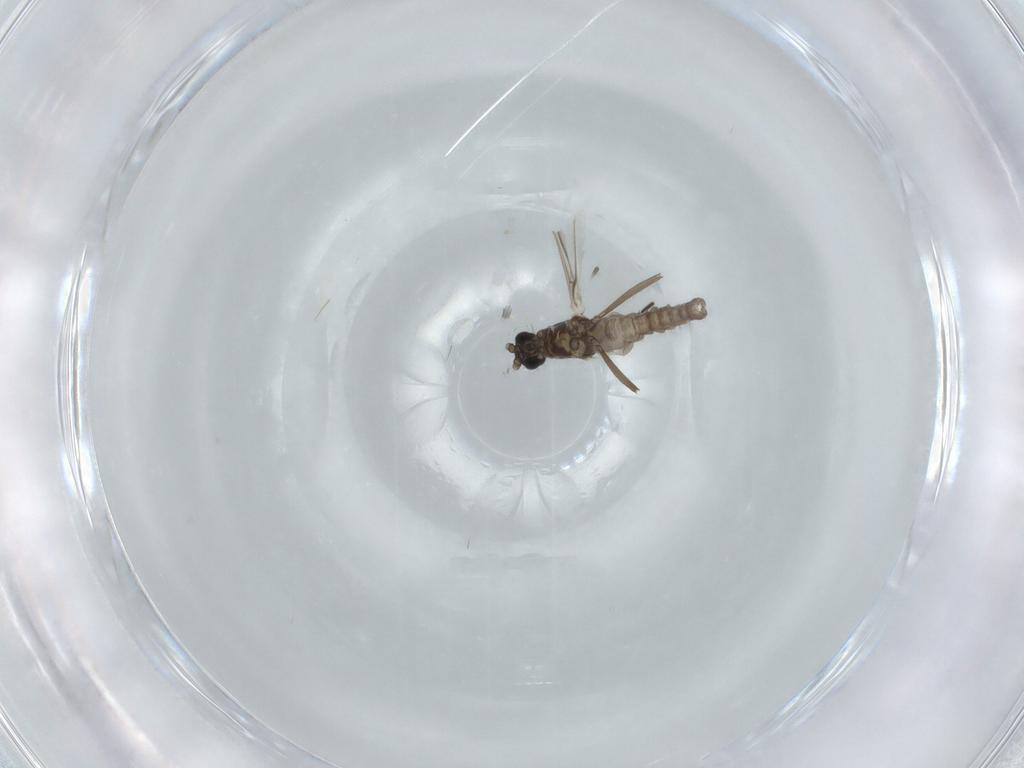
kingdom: Animalia
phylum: Arthropoda
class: Insecta
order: Diptera
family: Cecidomyiidae
